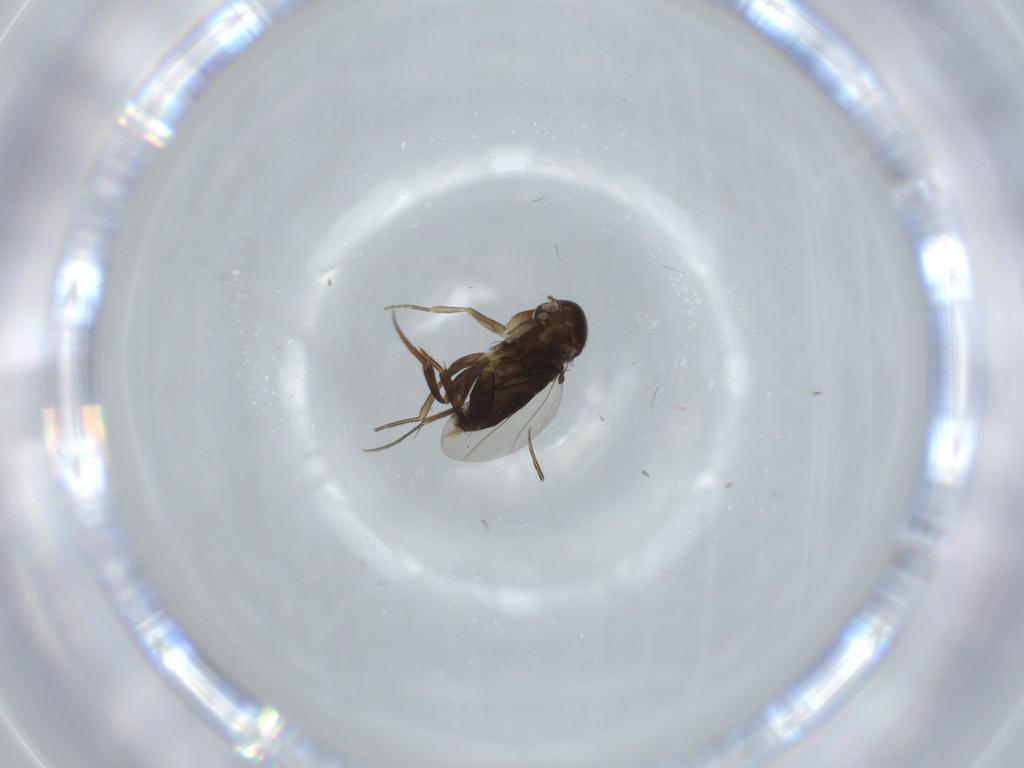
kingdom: Animalia
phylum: Arthropoda
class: Insecta
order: Diptera
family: Phoridae
